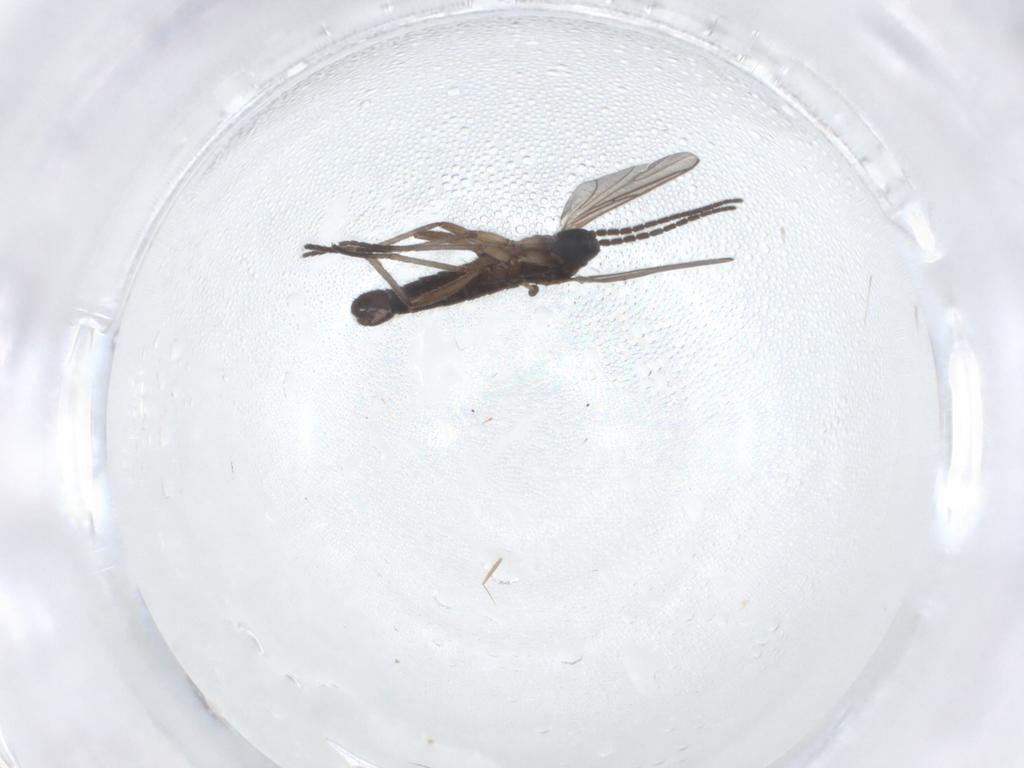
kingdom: Animalia
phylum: Arthropoda
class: Insecta
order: Diptera
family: Sciaridae
